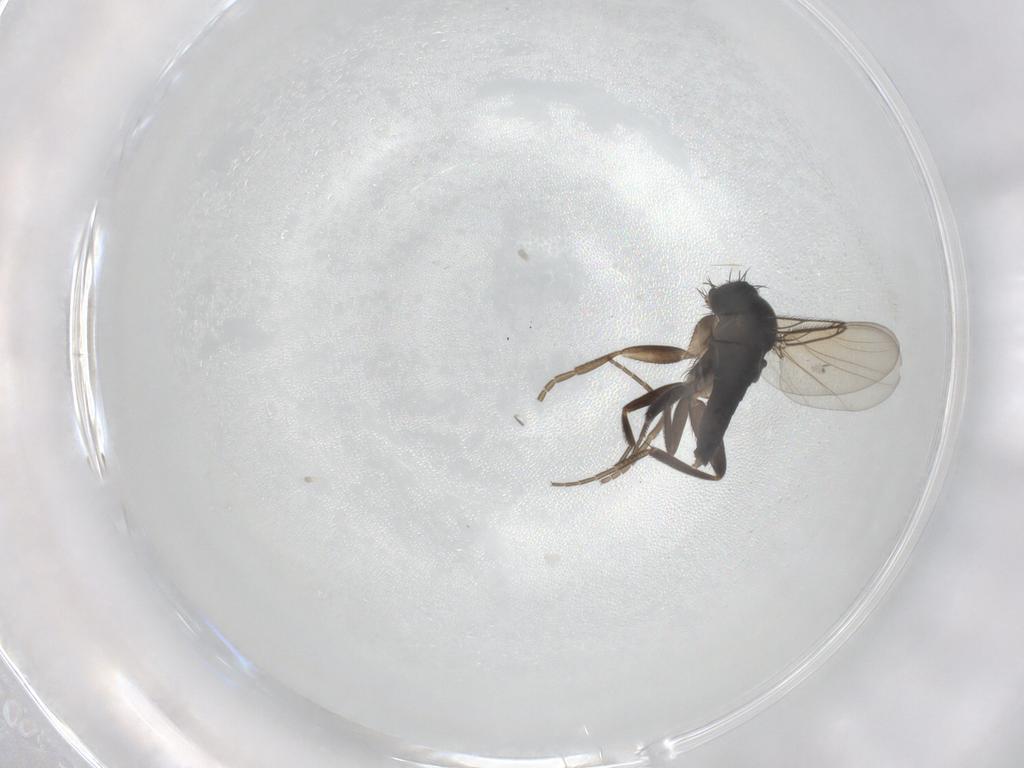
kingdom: Animalia
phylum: Arthropoda
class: Insecta
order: Diptera
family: Phoridae
